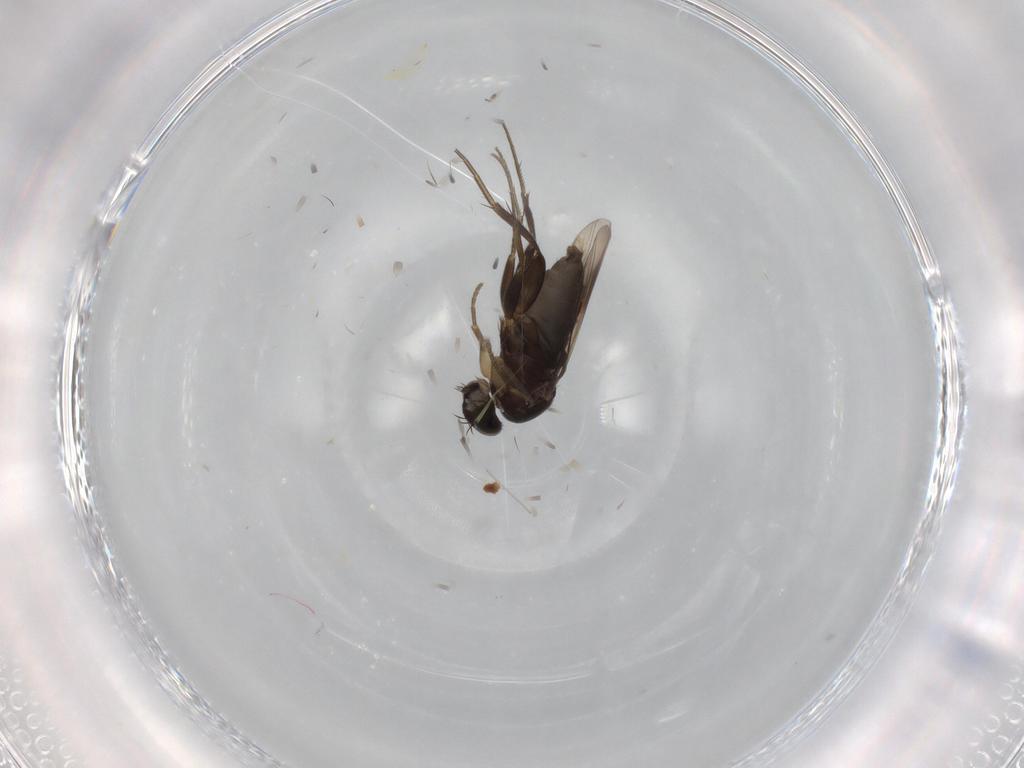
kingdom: Animalia
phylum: Arthropoda
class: Insecta
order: Diptera
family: Phoridae
